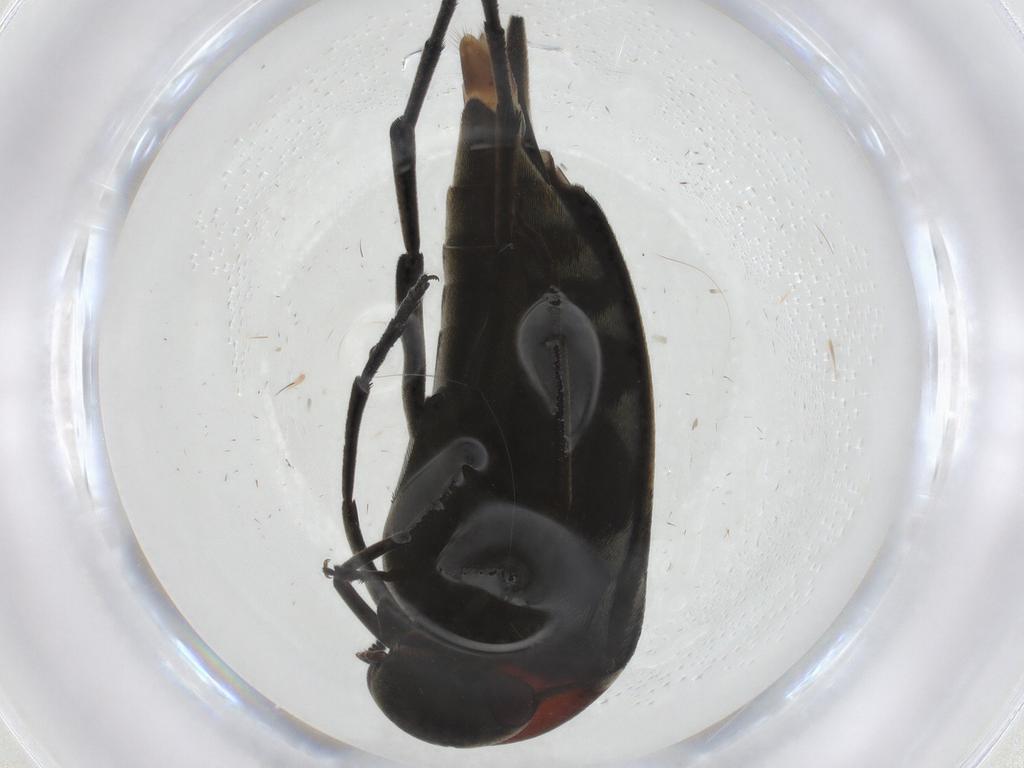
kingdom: Animalia
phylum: Arthropoda
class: Insecta
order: Coleoptera
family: Mordellidae
